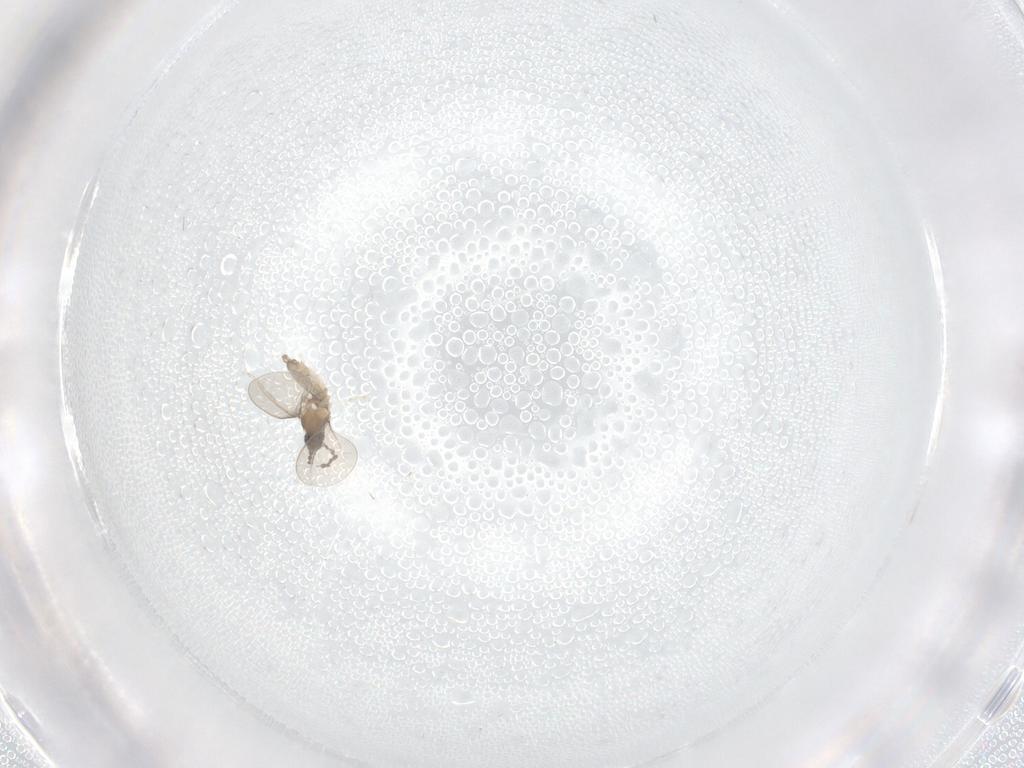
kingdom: Animalia
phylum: Arthropoda
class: Insecta
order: Diptera
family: Cecidomyiidae
